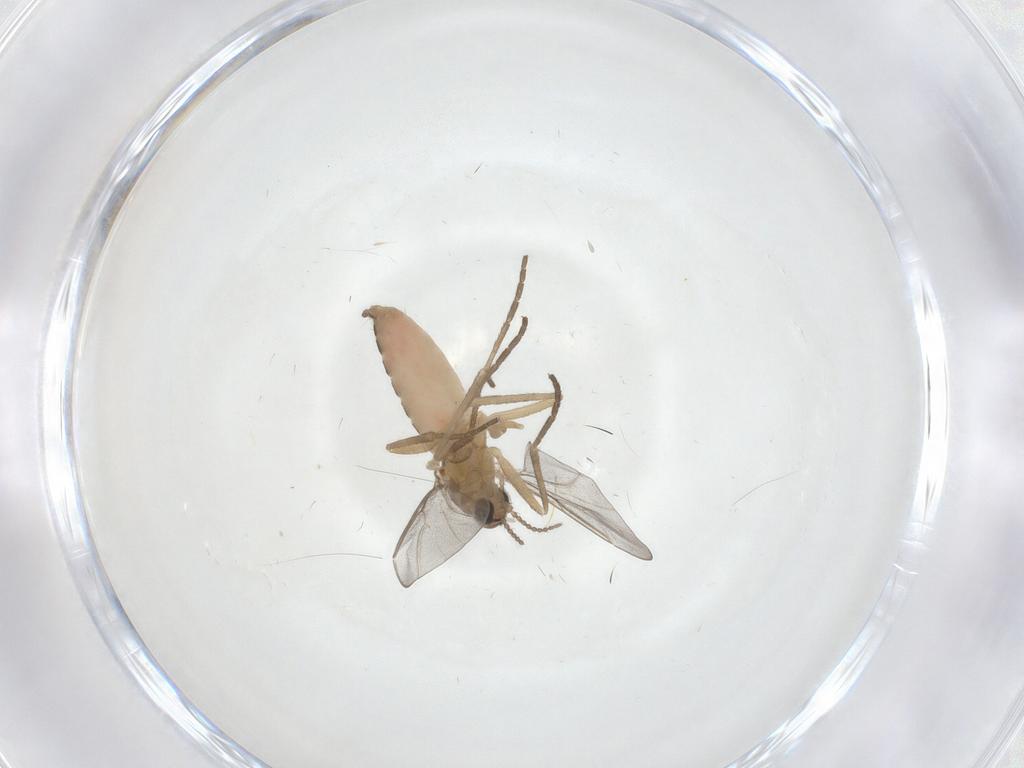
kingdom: Animalia
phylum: Arthropoda
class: Insecta
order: Diptera
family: Cecidomyiidae
